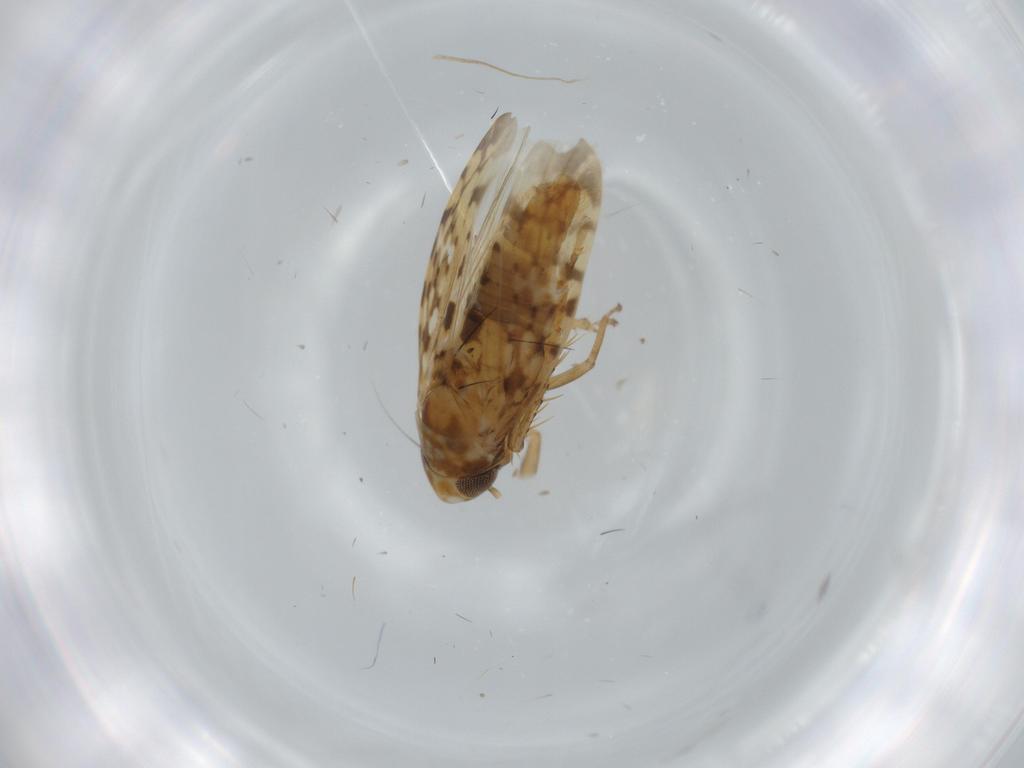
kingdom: Animalia
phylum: Arthropoda
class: Insecta
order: Hemiptera
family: Cicadellidae
